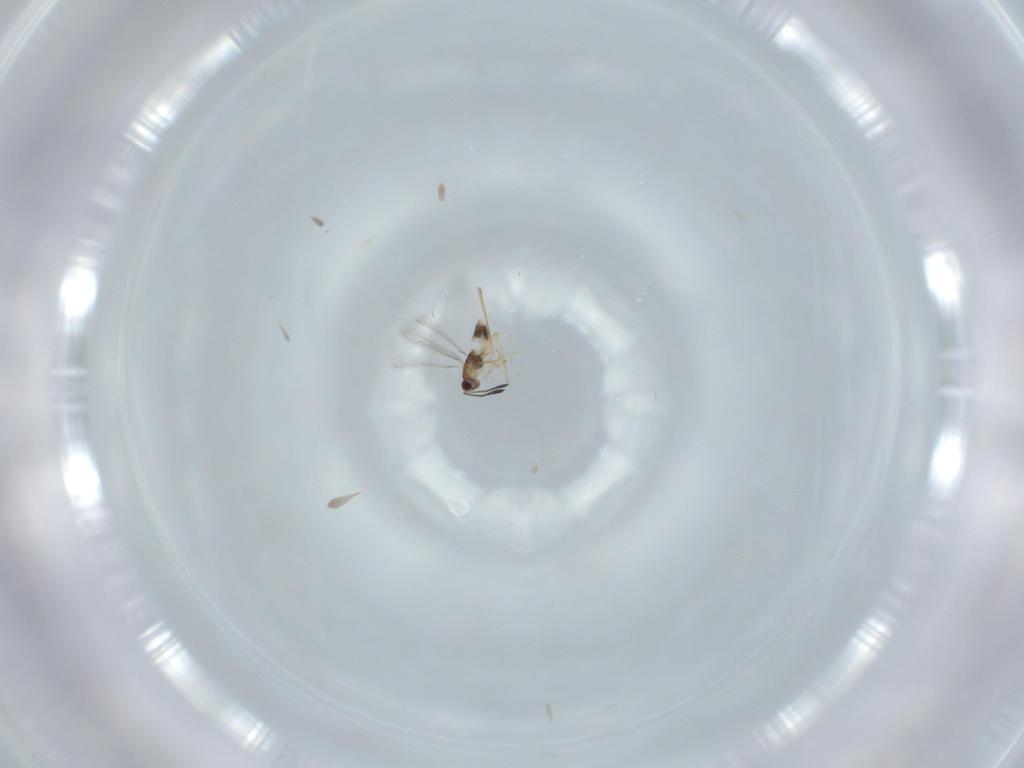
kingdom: Animalia
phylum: Arthropoda
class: Insecta
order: Hymenoptera
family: Mymaridae
